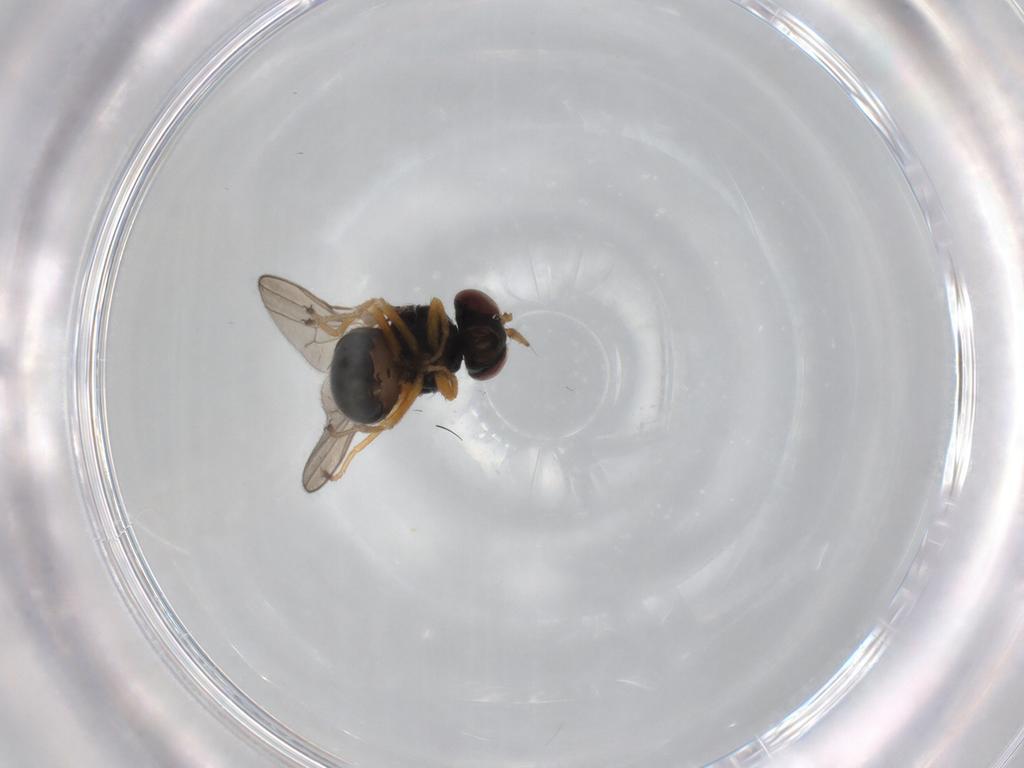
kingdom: Animalia
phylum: Arthropoda
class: Insecta
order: Diptera
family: Ephydridae
